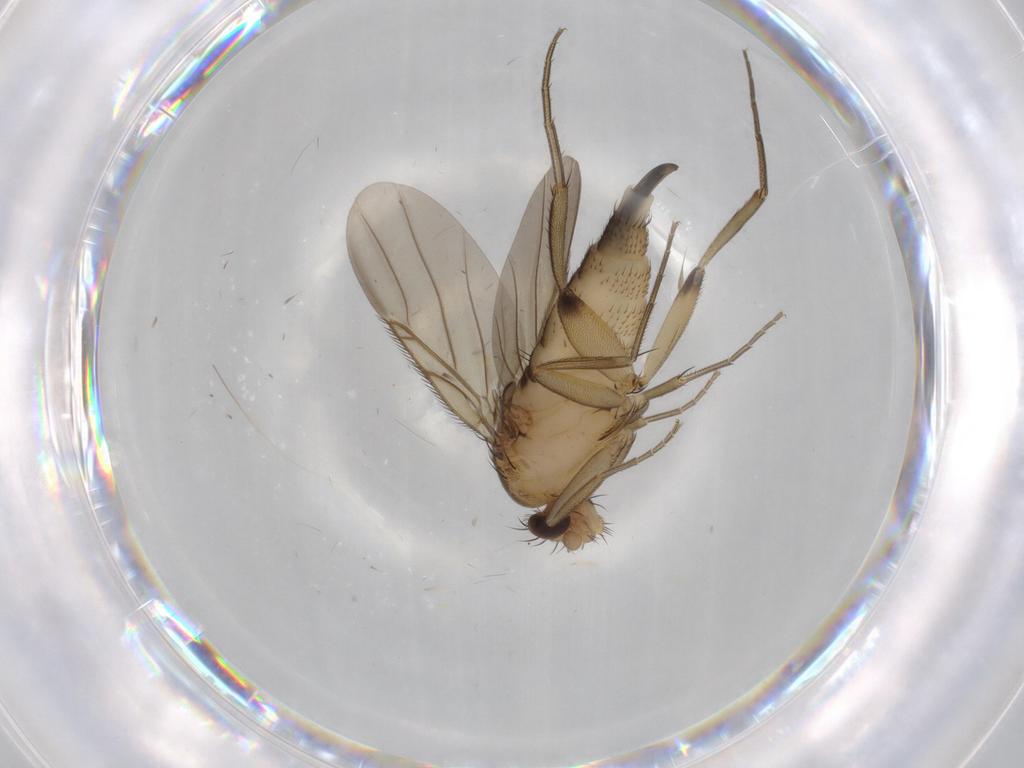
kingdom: Animalia
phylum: Arthropoda
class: Insecta
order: Diptera
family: Phoridae
